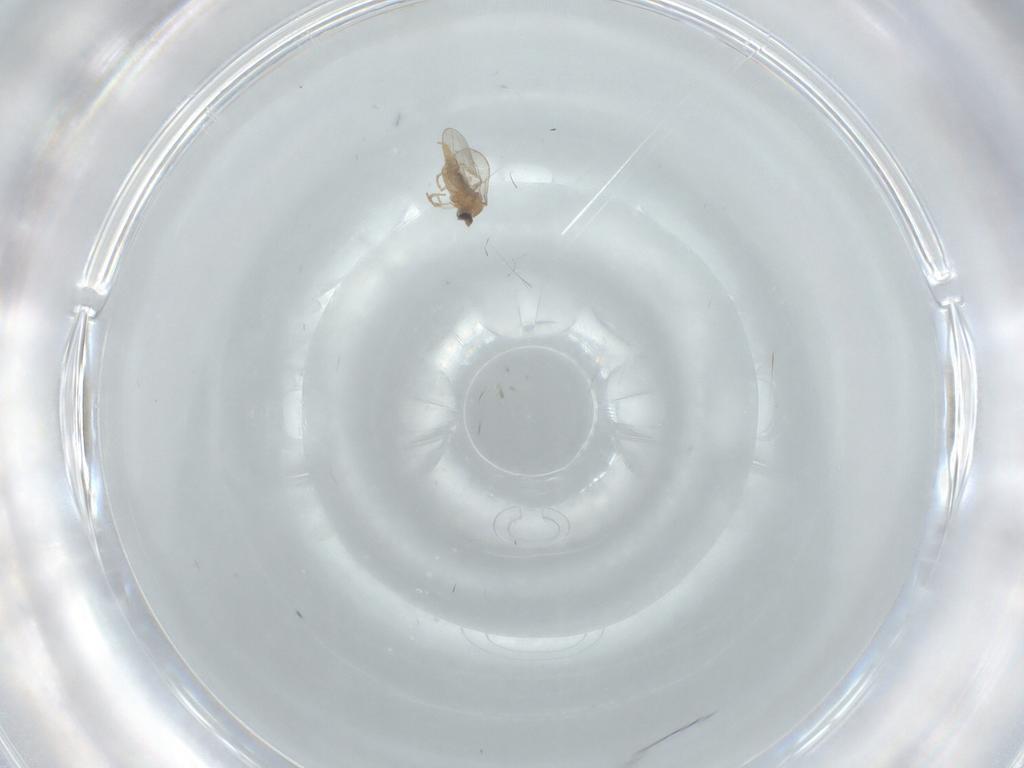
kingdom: Animalia
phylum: Arthropoda
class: Insecta
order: Diptera
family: Cecidomyiidae
